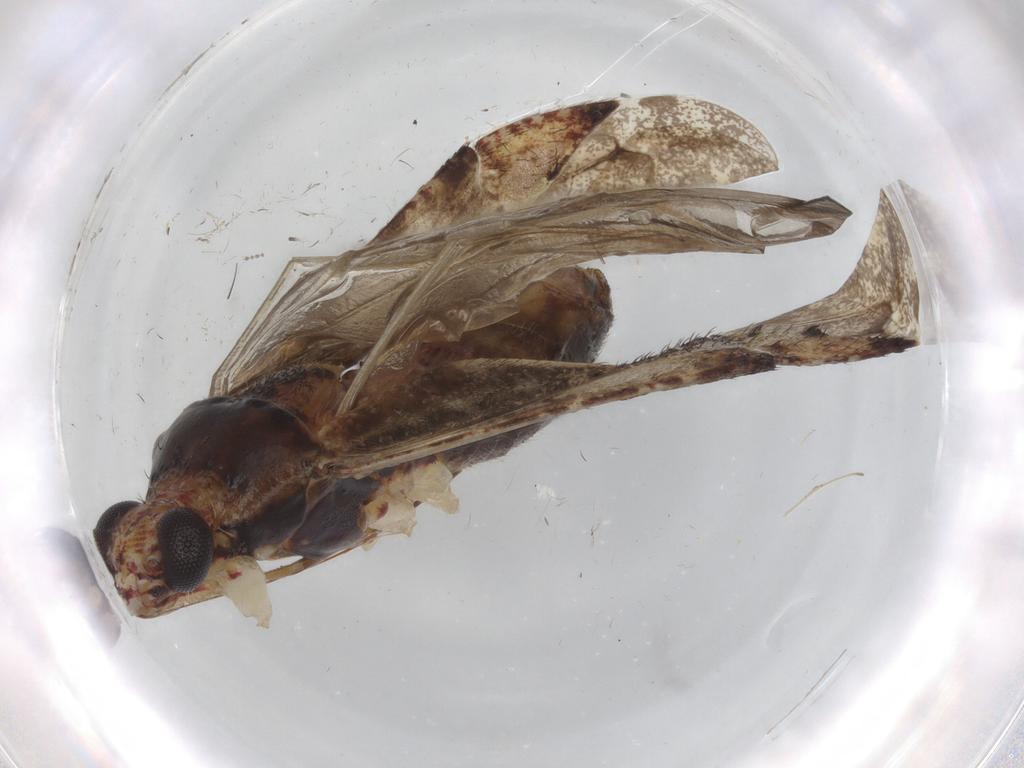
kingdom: Animalia
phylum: Arthropoda
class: Insecta
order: Hemiptera
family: Miridae
